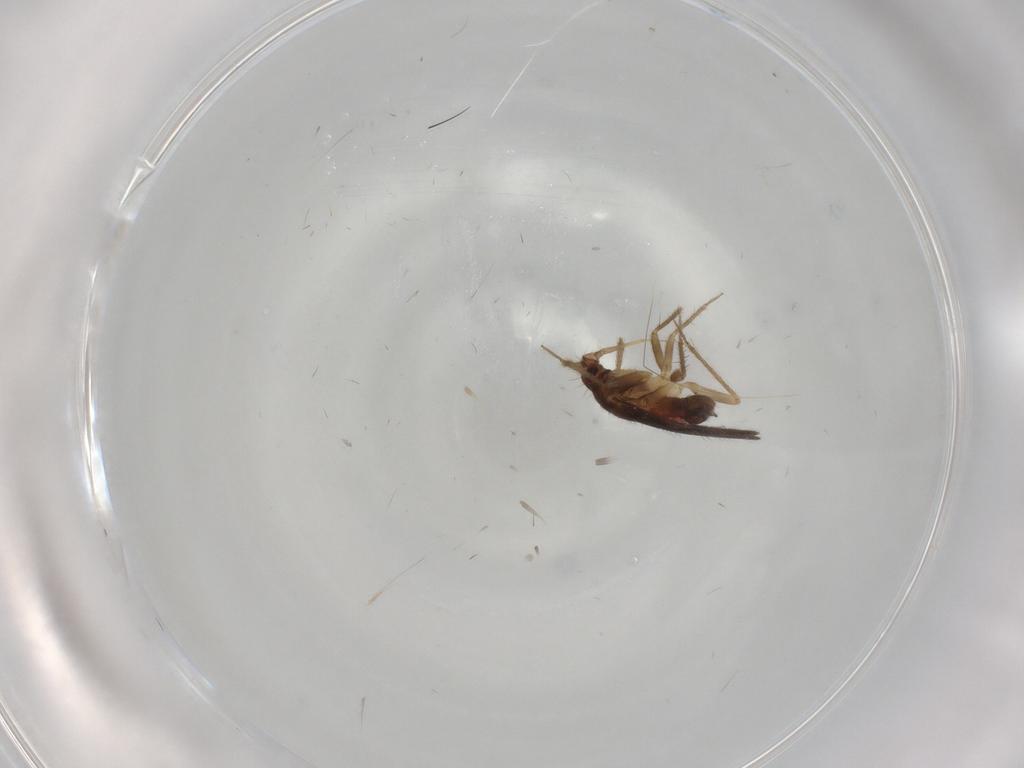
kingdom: Animalia
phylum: Arthropoda
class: Insecta
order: Hemiptera
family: Ceratocombidae
